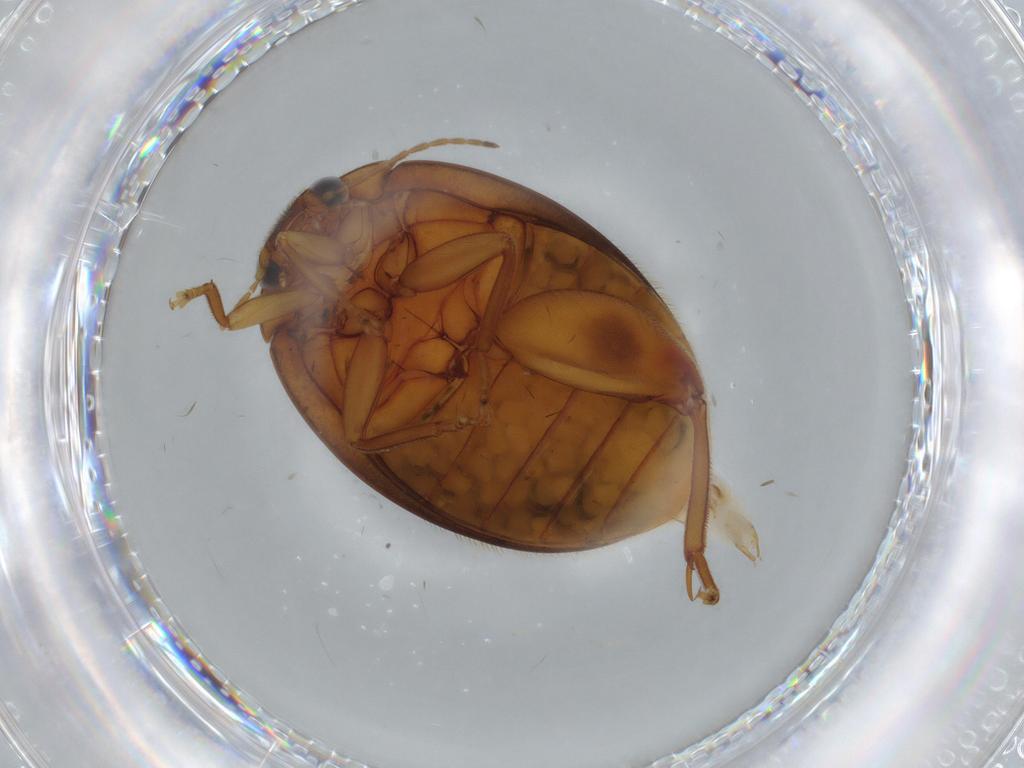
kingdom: Animalia
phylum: Arthropoda
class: Insecta
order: Coleoptera
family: Scirtidae
